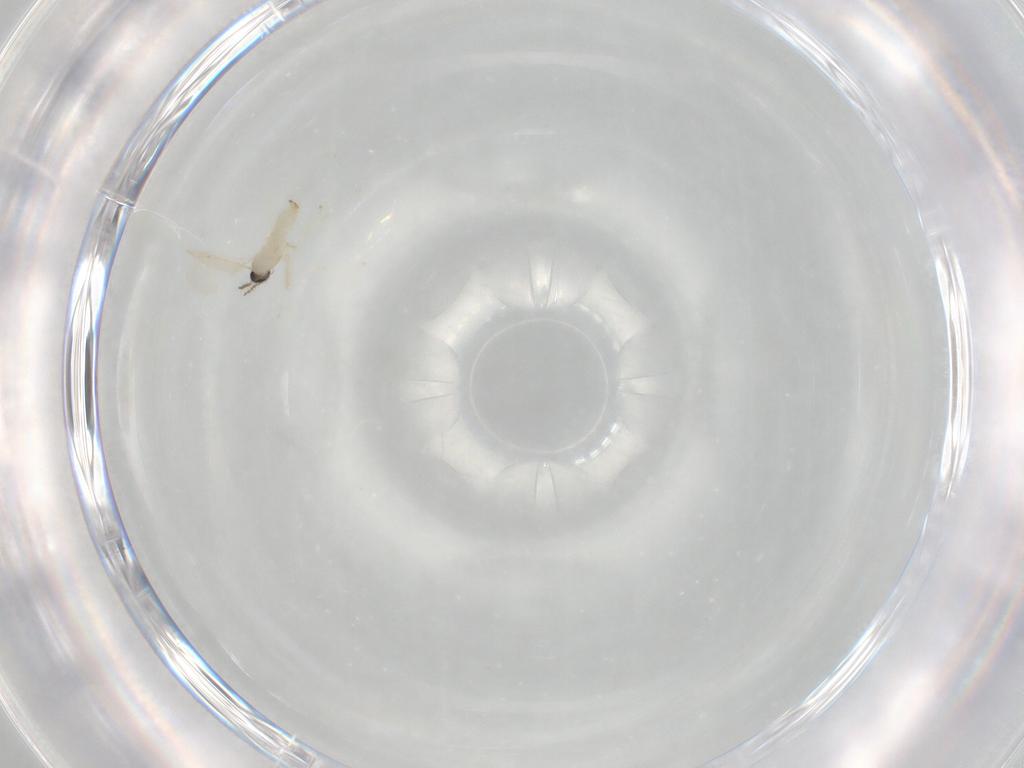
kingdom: Animalia
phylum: Arthropoda
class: Insecta
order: Diptera
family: Cecidomyiidae
